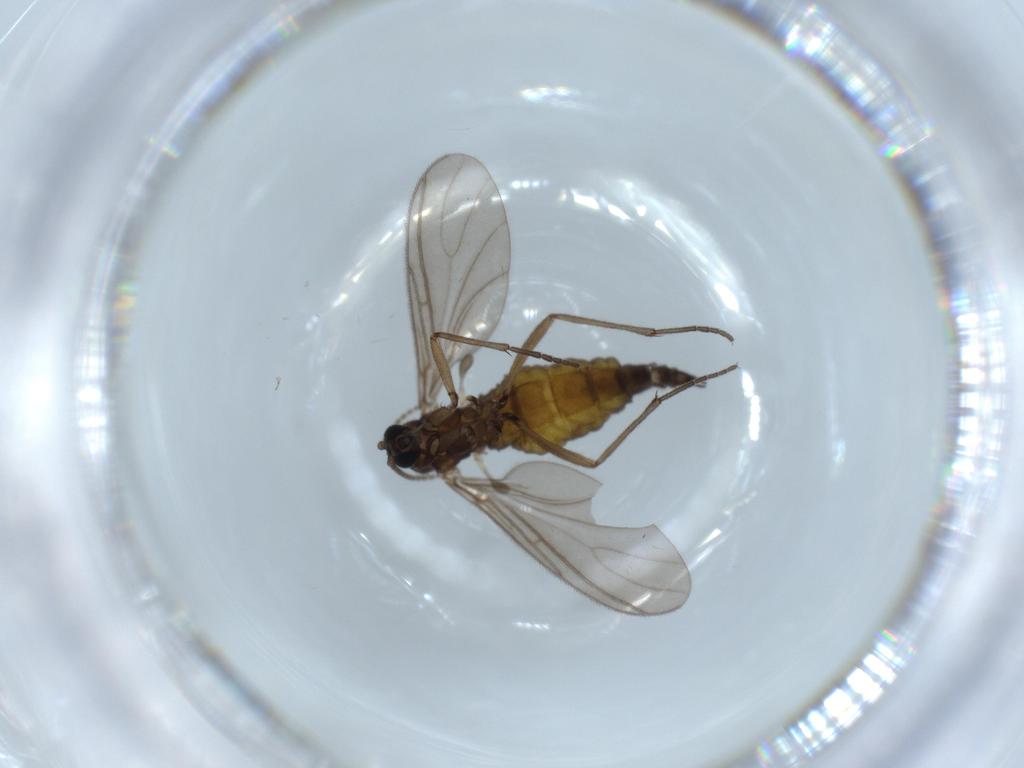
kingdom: Animalia
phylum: Arthropoda
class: Insecta
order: Diptera
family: Sciaridae
